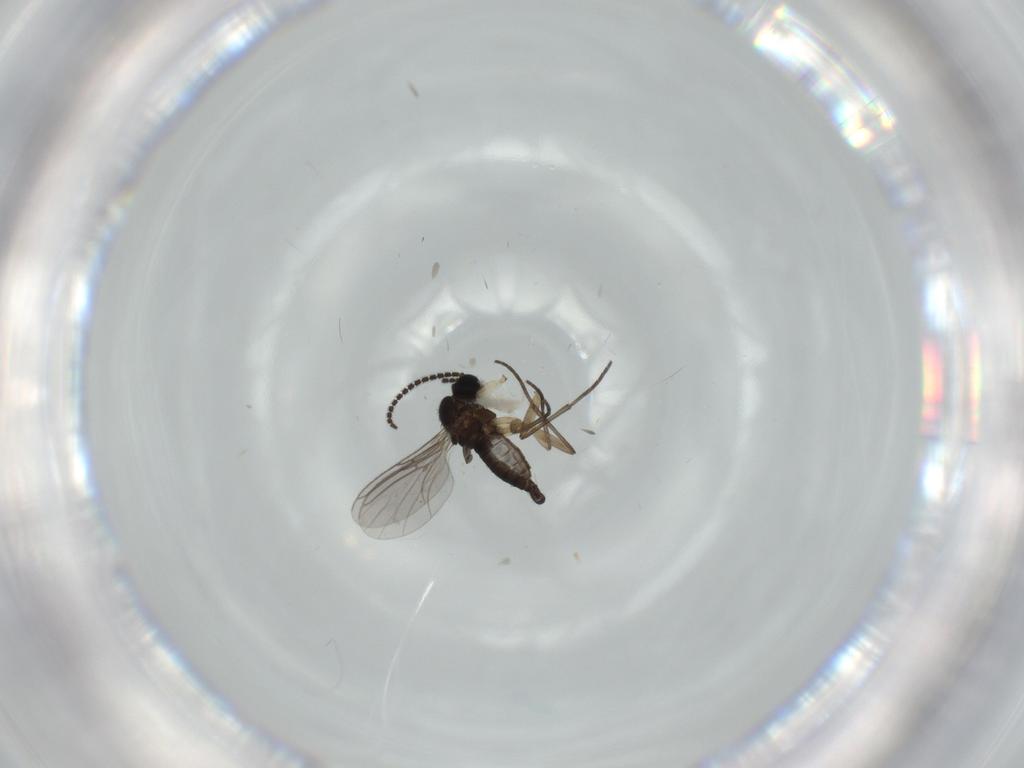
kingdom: Animalia
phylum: Arthropoda
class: Insecta
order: Diptera
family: Sciaridae
